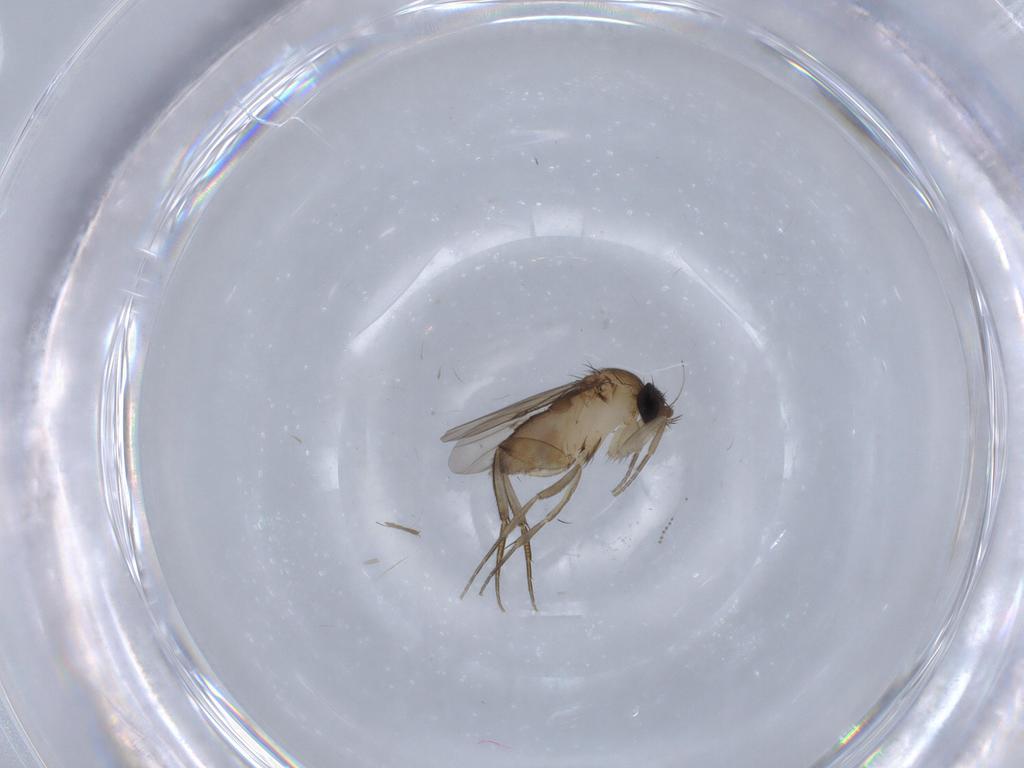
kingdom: Animalia
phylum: Arthropoda
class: Insecta
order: Diptera
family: Phoridae
